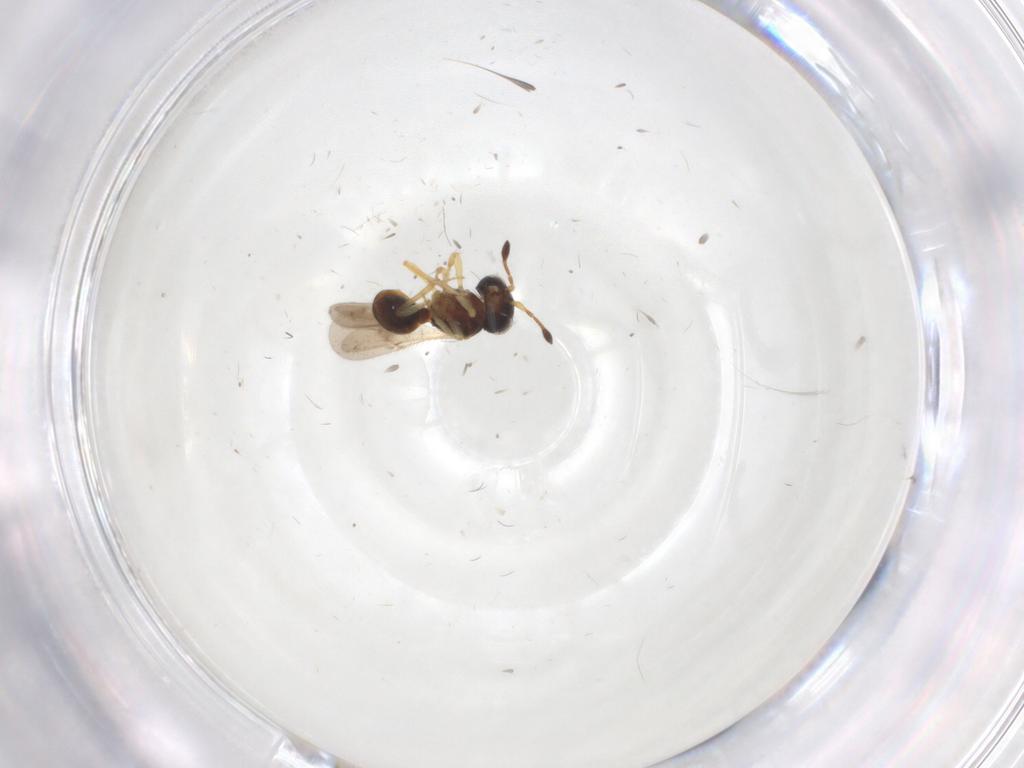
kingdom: Animalia
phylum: Arthropoda
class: Insecta
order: Hymenoptera
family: Scelionidae
